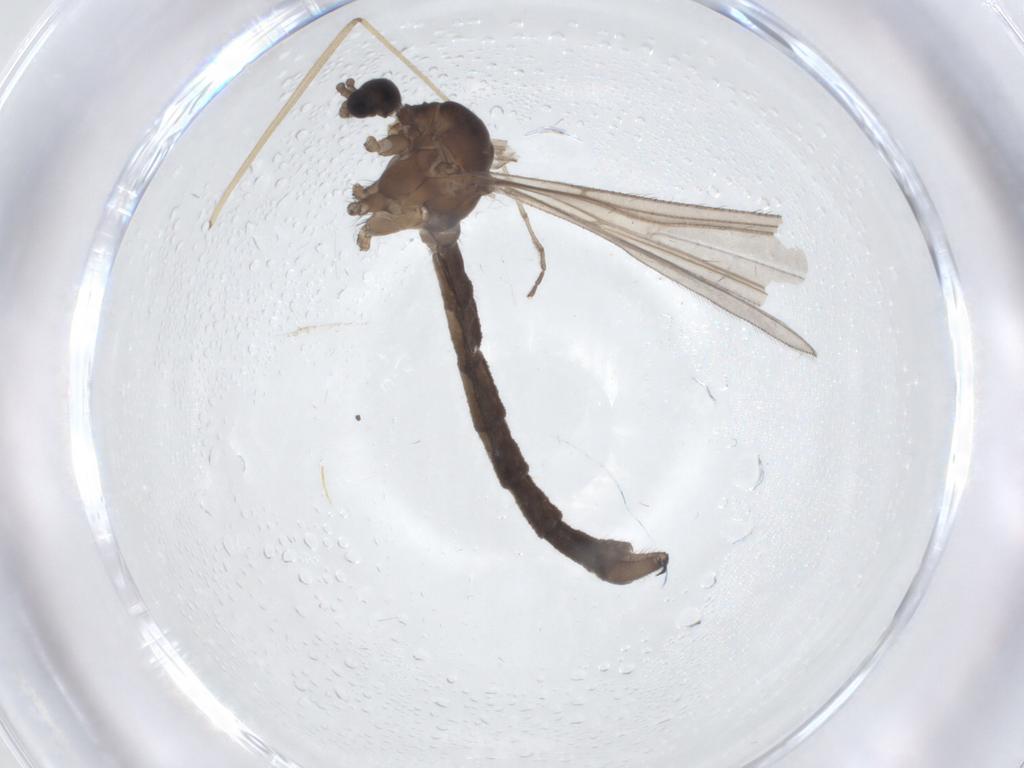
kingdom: Animalia
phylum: Arthropoda
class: Insecta
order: Diptera
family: Chironomidae
